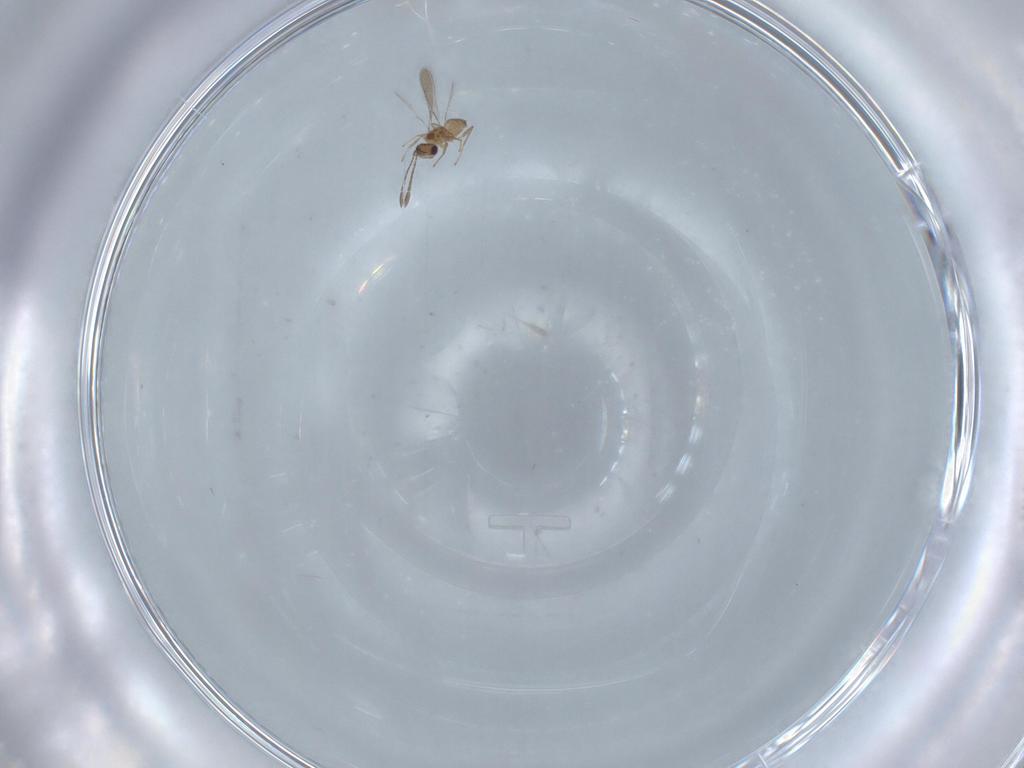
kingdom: Animalia
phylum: Arthropoda
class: Insecta
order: Hymenoptera
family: Mymaridae
